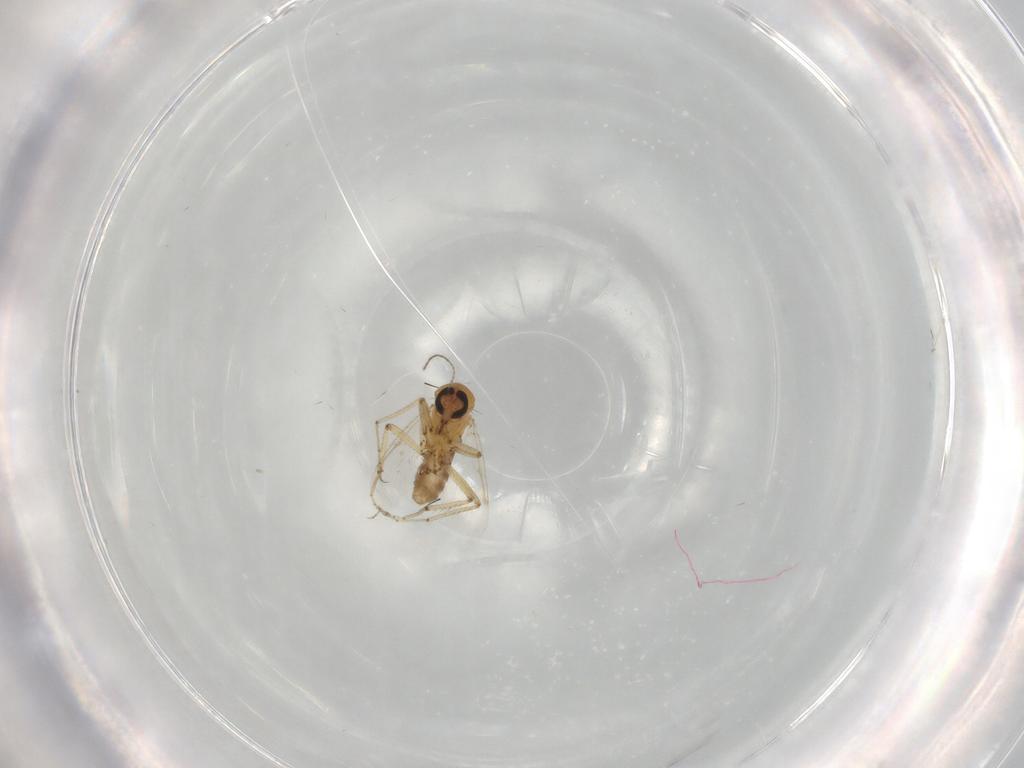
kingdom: Animalia
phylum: Arthropoda
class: Insecta
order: Diptera
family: Ceratopogonidae
